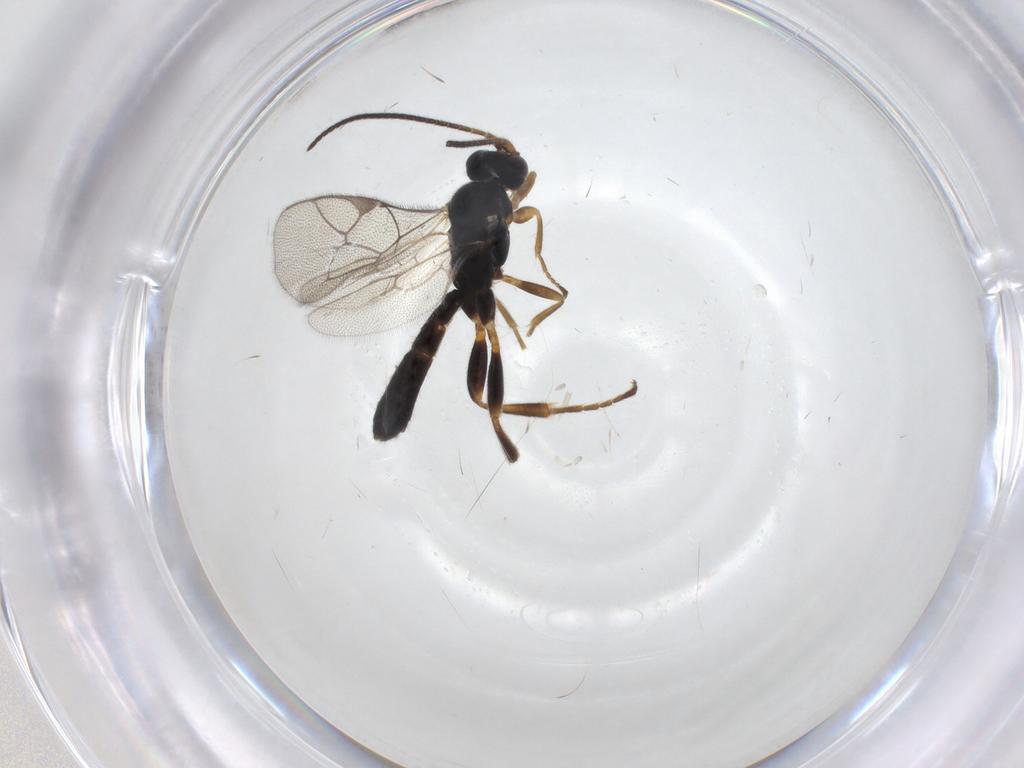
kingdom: Animalia
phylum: Arthropoda
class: Insecta
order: Hymenoptera
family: Ichneumonidae
